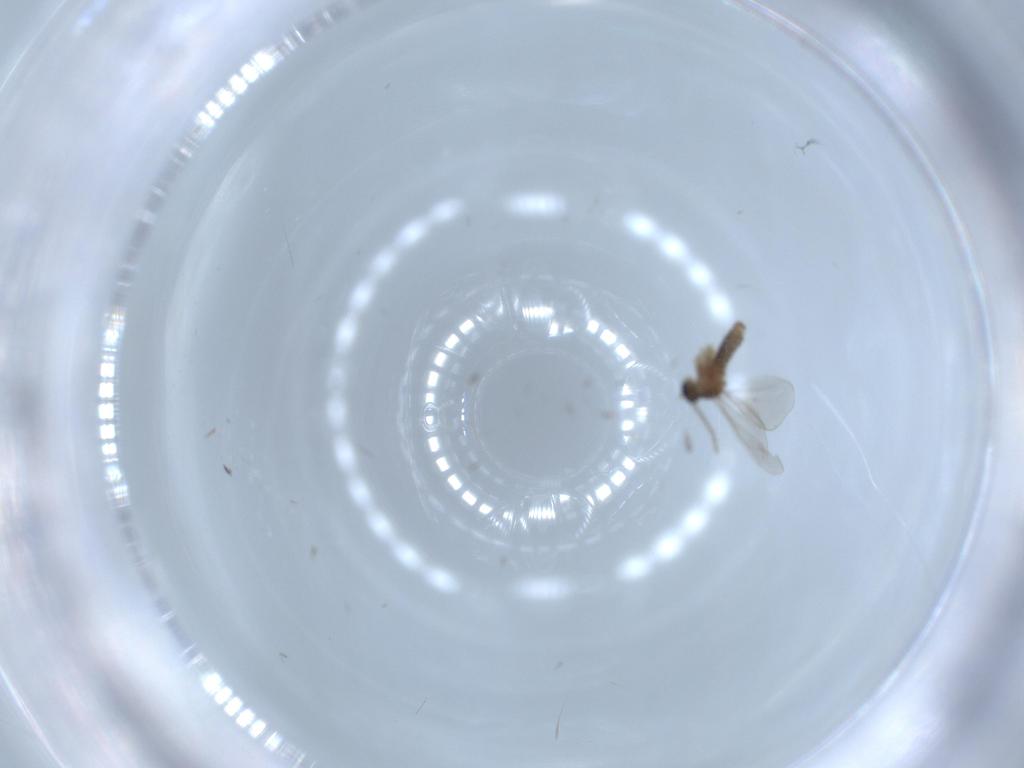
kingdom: Animalia
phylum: Arthropoda
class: Insecta
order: Diptera
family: Cecidomyiidae
